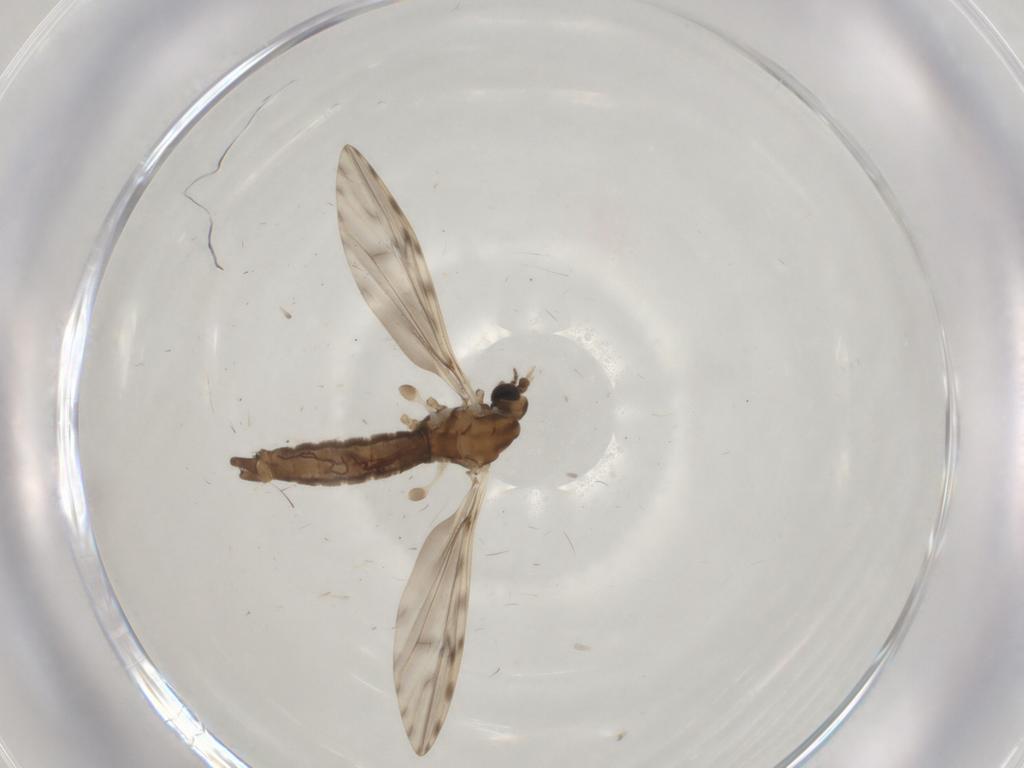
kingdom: Animalia
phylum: Arthropoda
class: Insecta
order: Diptera
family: Limoniidae
